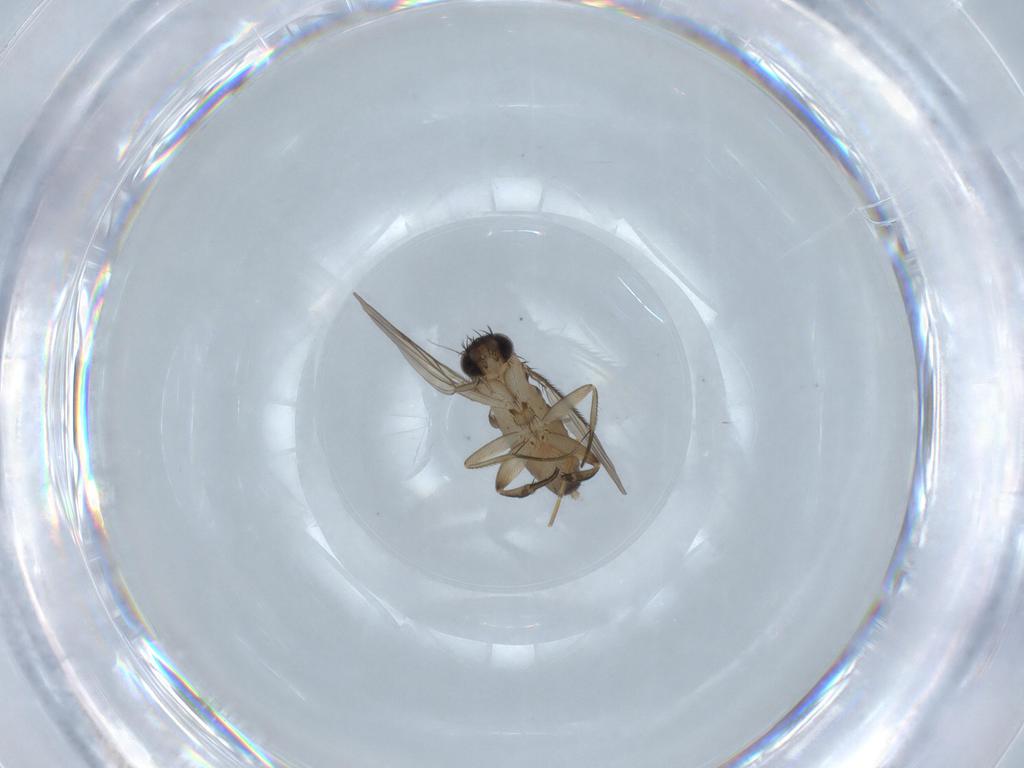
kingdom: Animalia
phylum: Arthropoda
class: Insecta
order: Diptera
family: Phoridae
